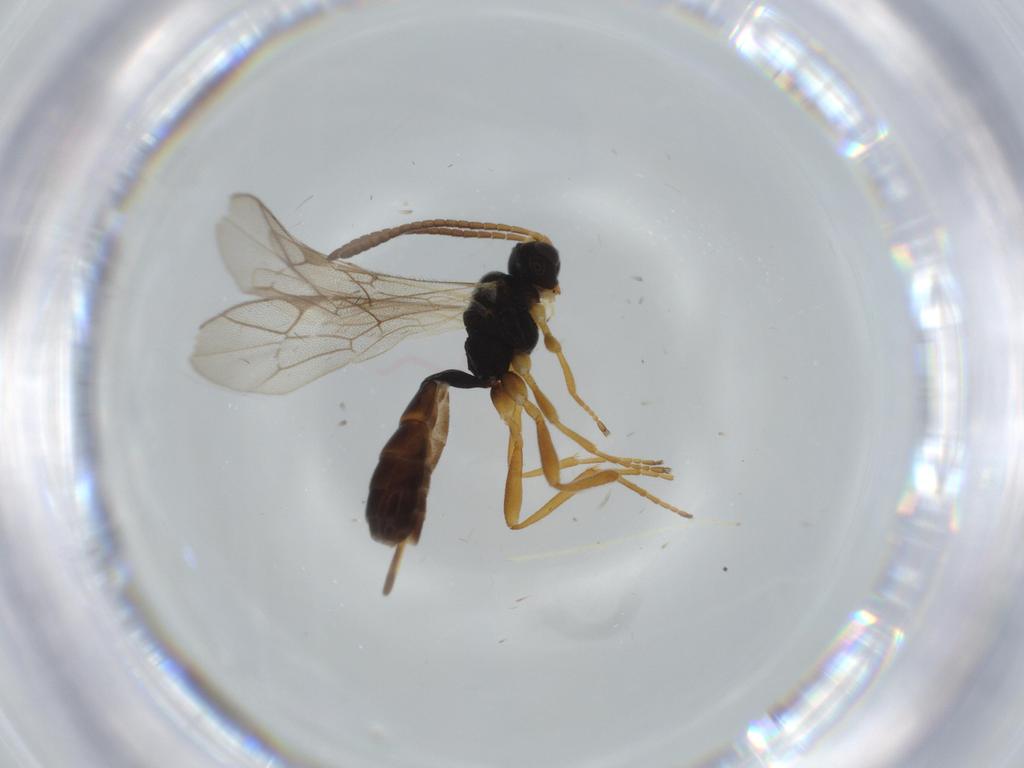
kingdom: Animalia
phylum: Arthropoda
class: Insecta
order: Hymenoptera
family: Ichneumonidae
